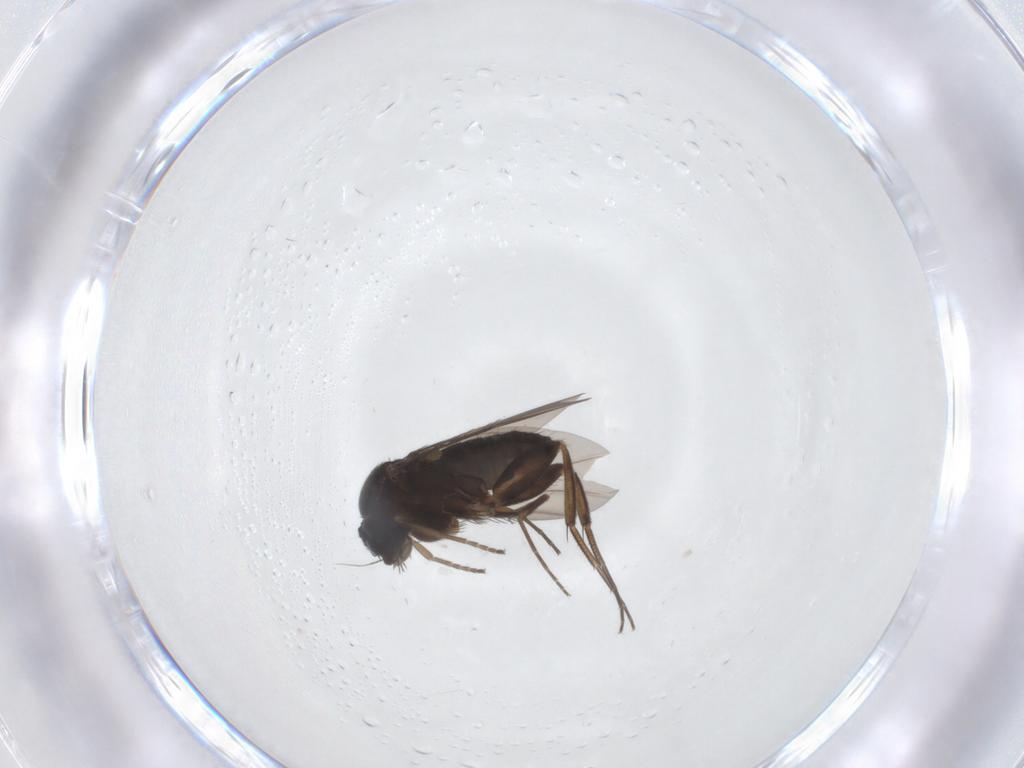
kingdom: Animalia
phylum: Arthropoda
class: Insecta
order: Diptera
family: Phoridae
